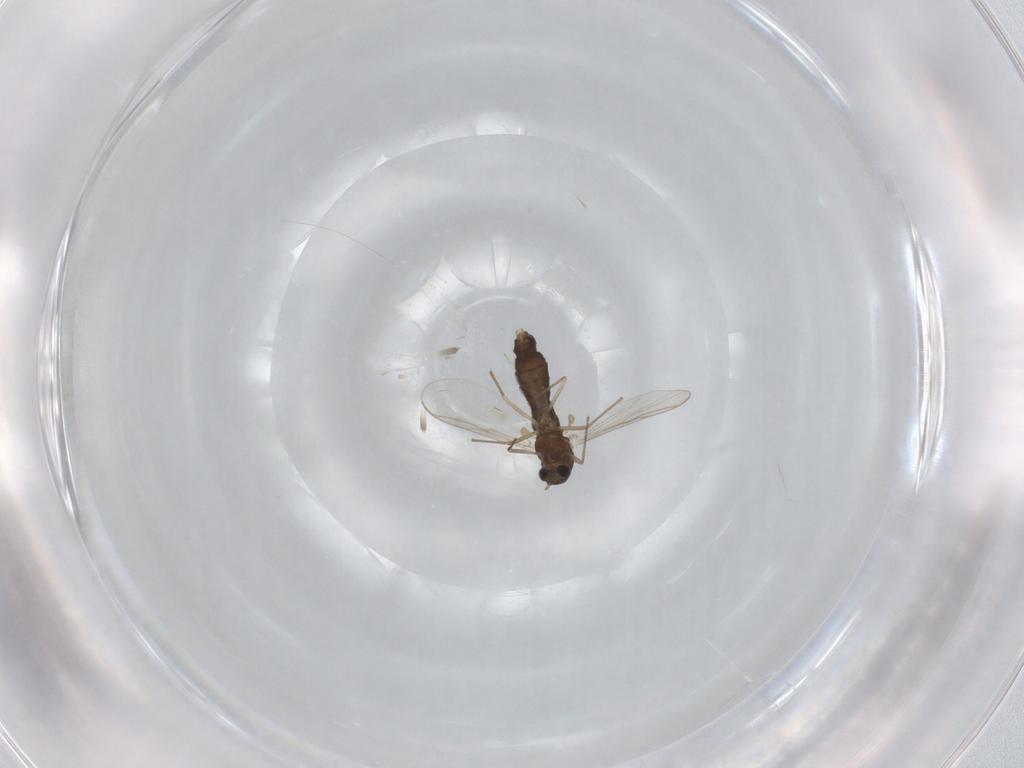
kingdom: Animalia
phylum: Arthropoda
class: Insecta
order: Diptera
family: Chironomidae
